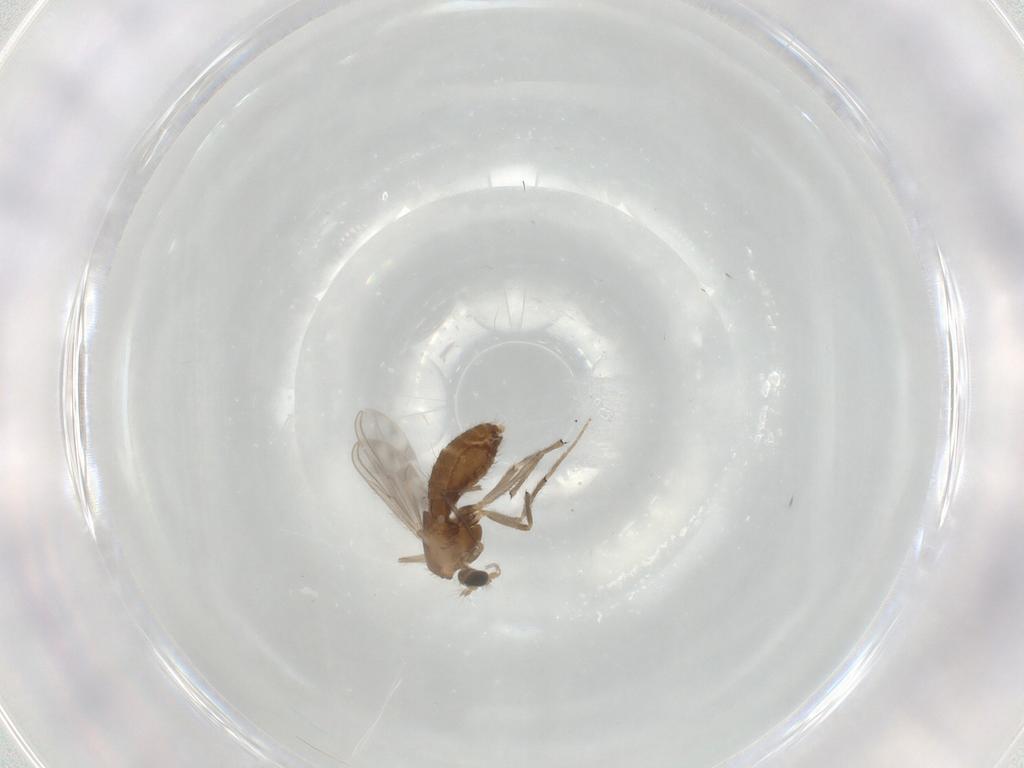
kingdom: Animalia
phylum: Arthropoda
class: Insecta
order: Diptera
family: Chironomidae
